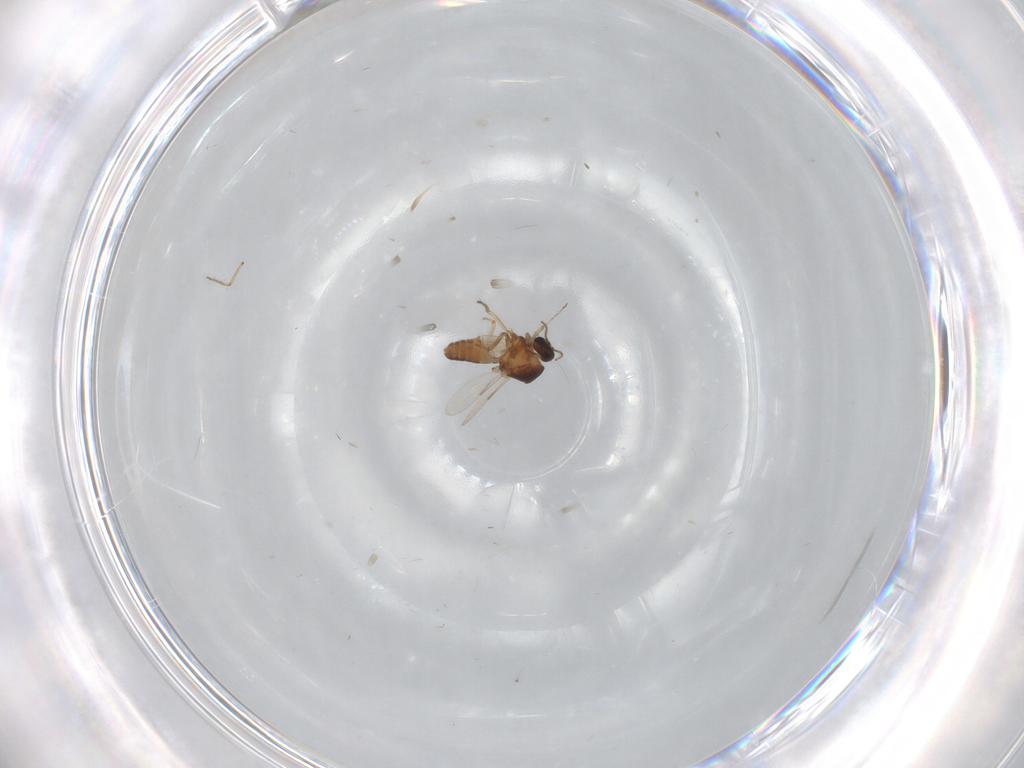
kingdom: Animalia
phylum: Arthropoda
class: Insecta
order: Diptera
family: Ceratopogonidae
